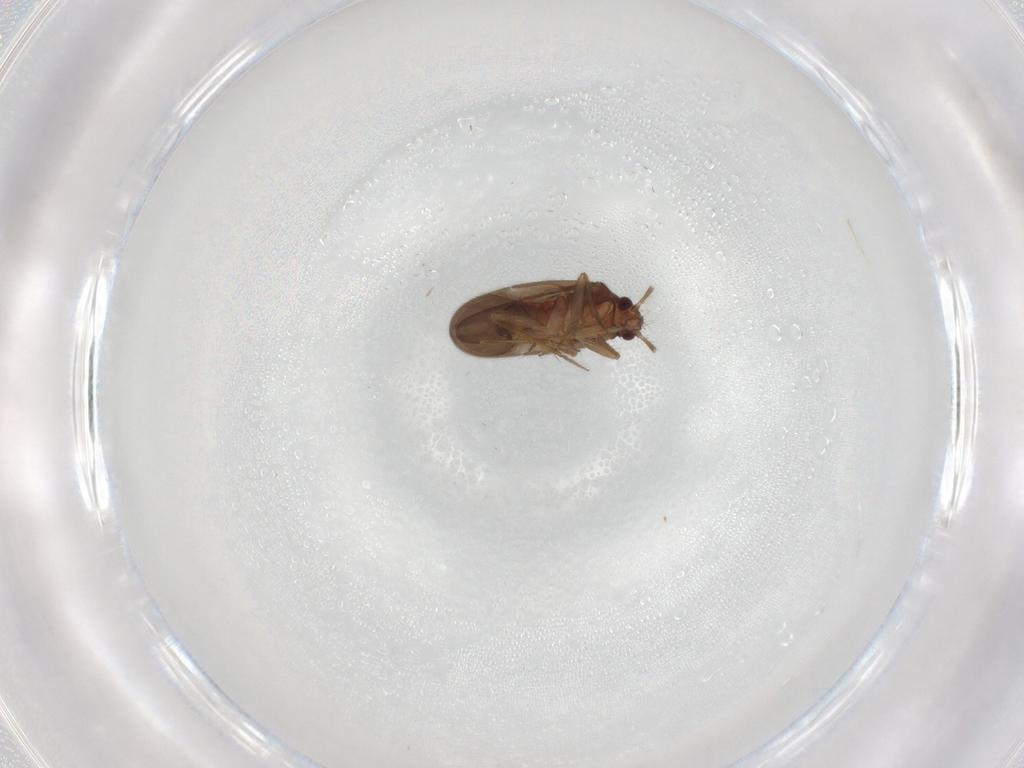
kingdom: Animalia
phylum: Arthropoda
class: Insecta
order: Hemiptera
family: Ceratocombidae
